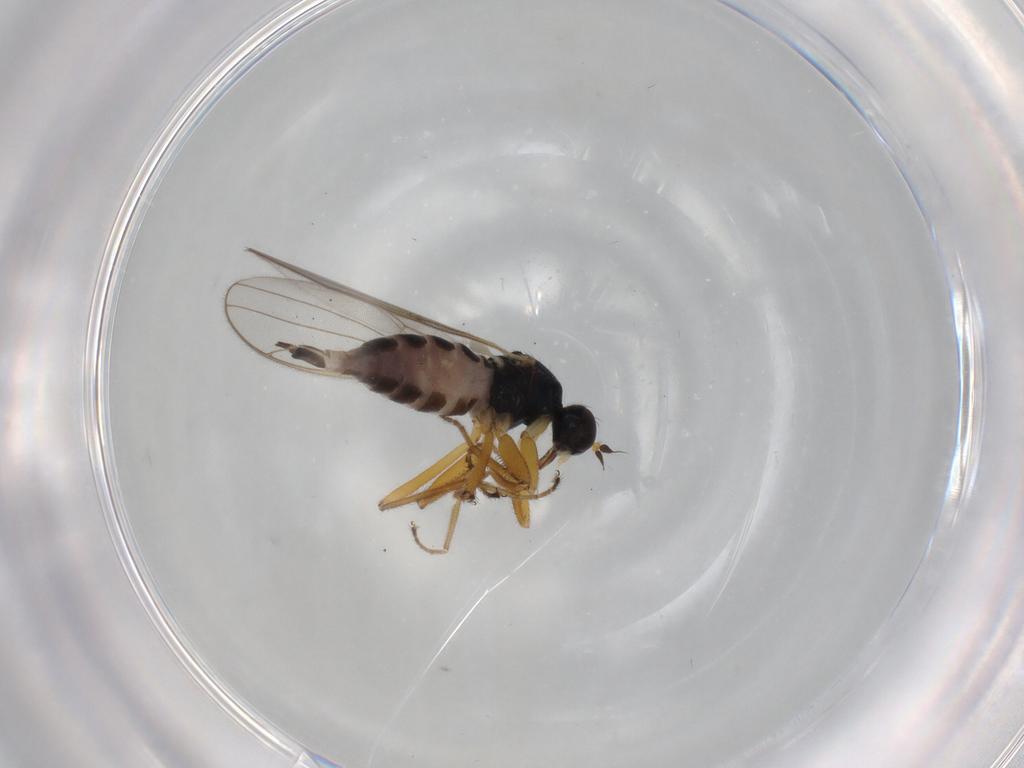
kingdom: Animalia
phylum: Arthropoda
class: Insecta
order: Diptera
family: Hybotidae
